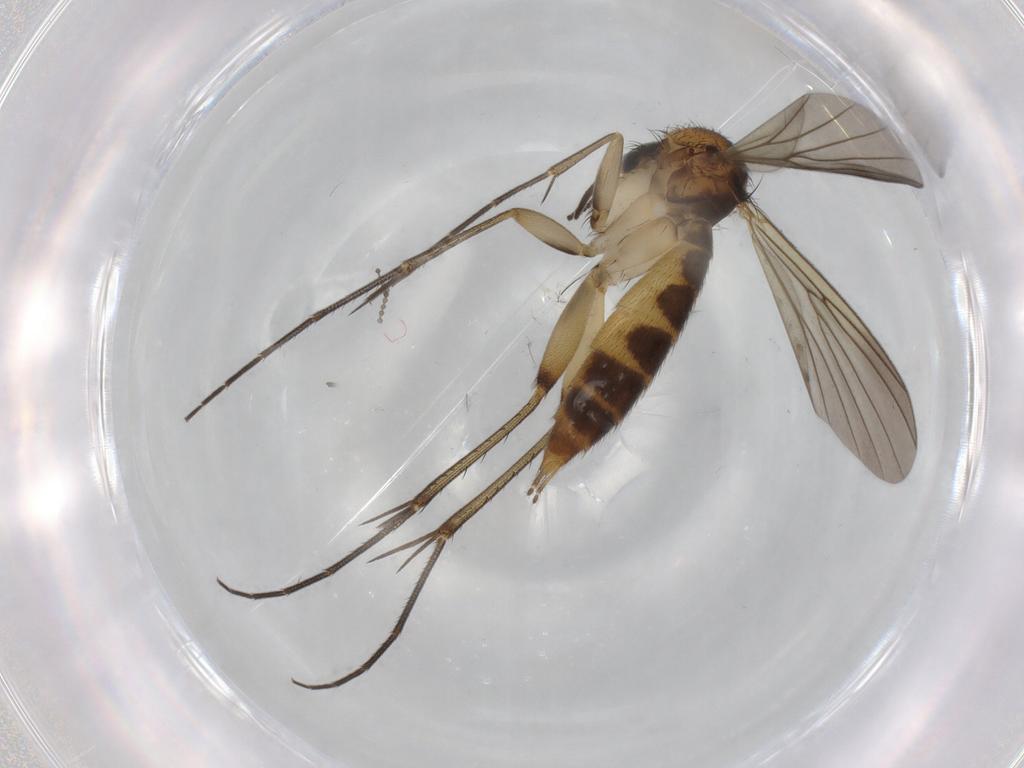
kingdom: Animalia
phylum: Arthropoda
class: Insecta
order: Diptera
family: Mycetophilidae
